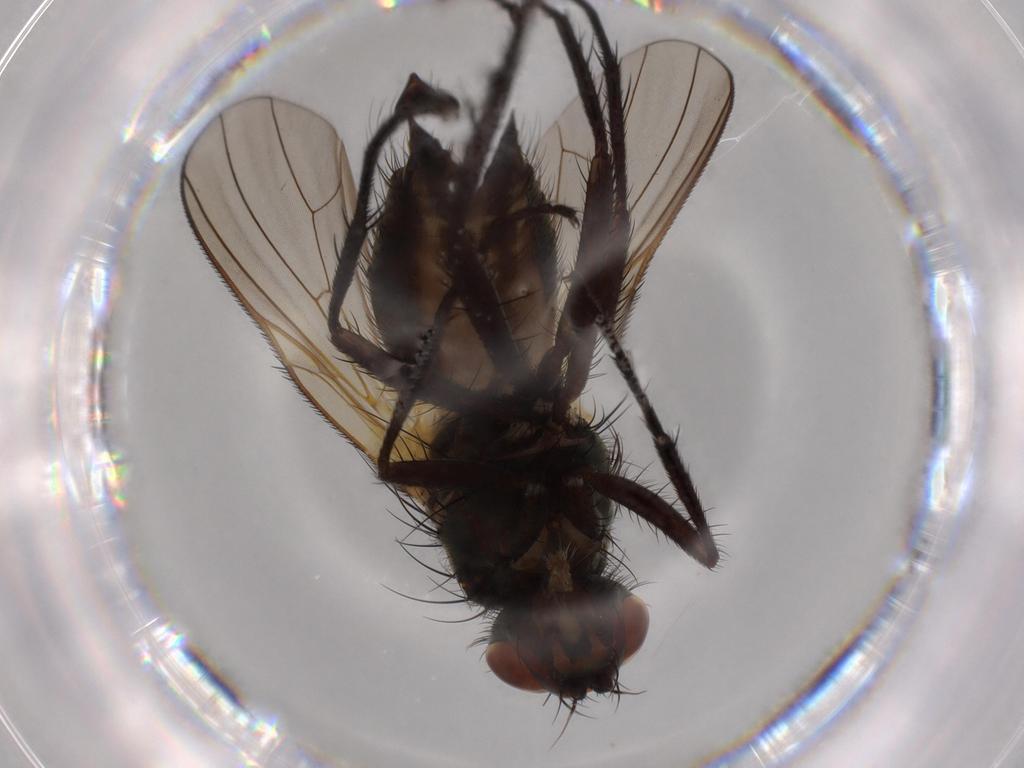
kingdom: Animalia
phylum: Arthropoda
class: Insecta
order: Diptera
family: Anthomyiidae
